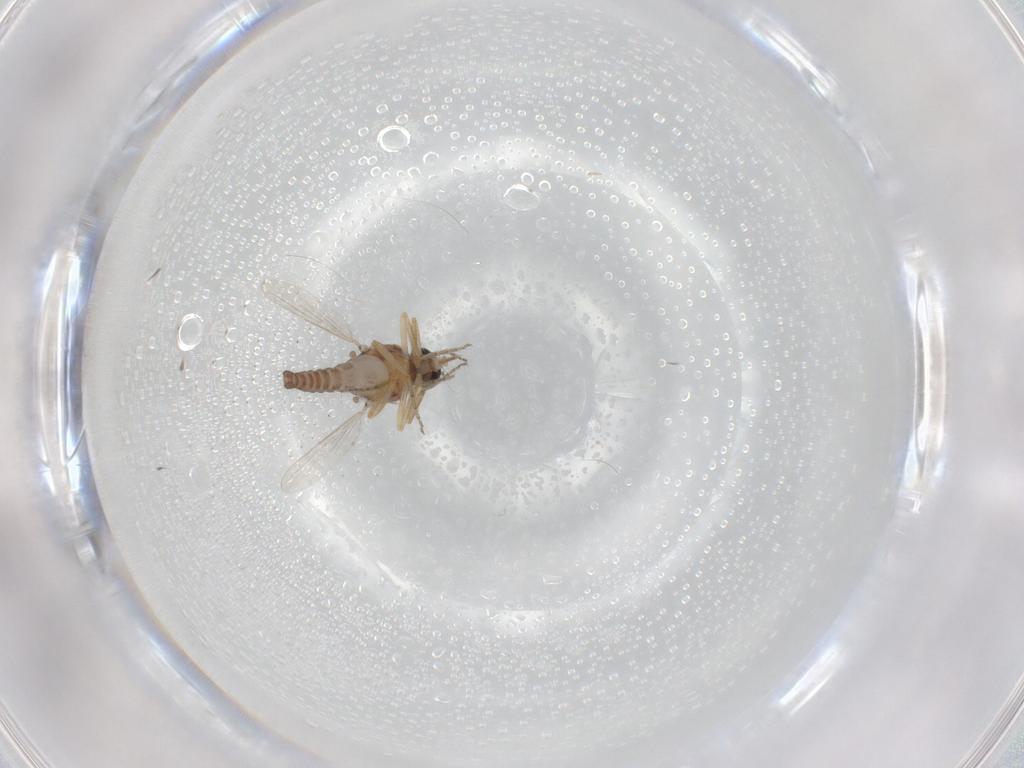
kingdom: Animalia
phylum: Arthropoda
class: Insecta
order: Diptera
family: Ceratopogonidae
